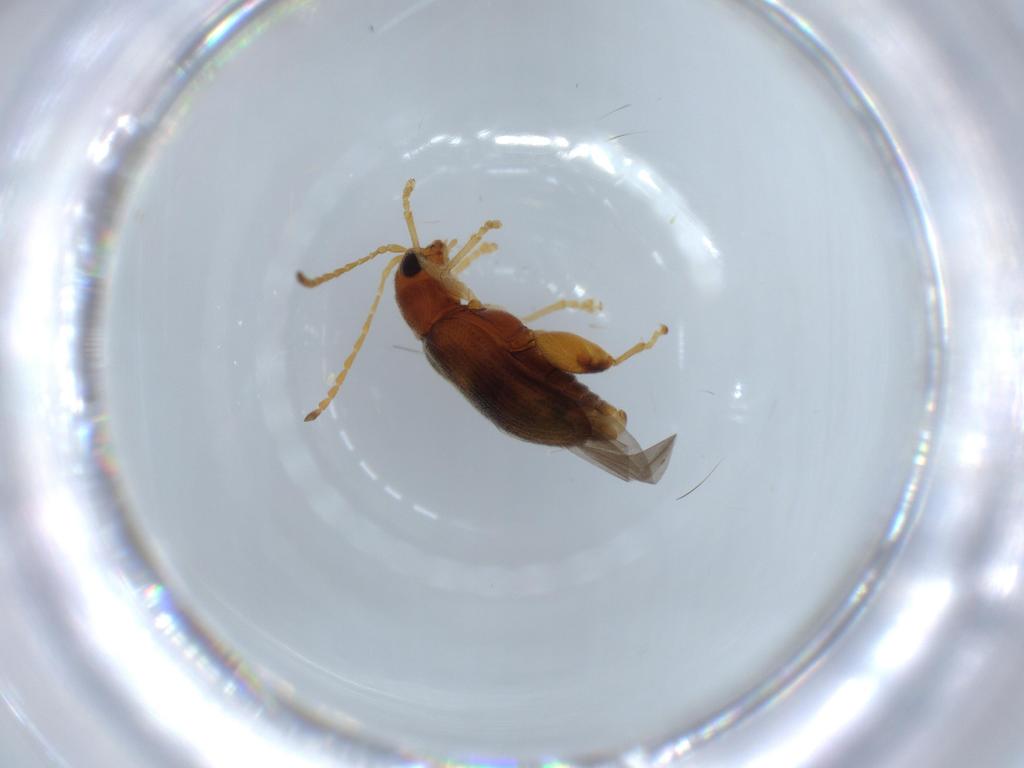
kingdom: Animalia
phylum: Arthropoda
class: Insecta
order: Coleoptera
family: Chrysomelidae
